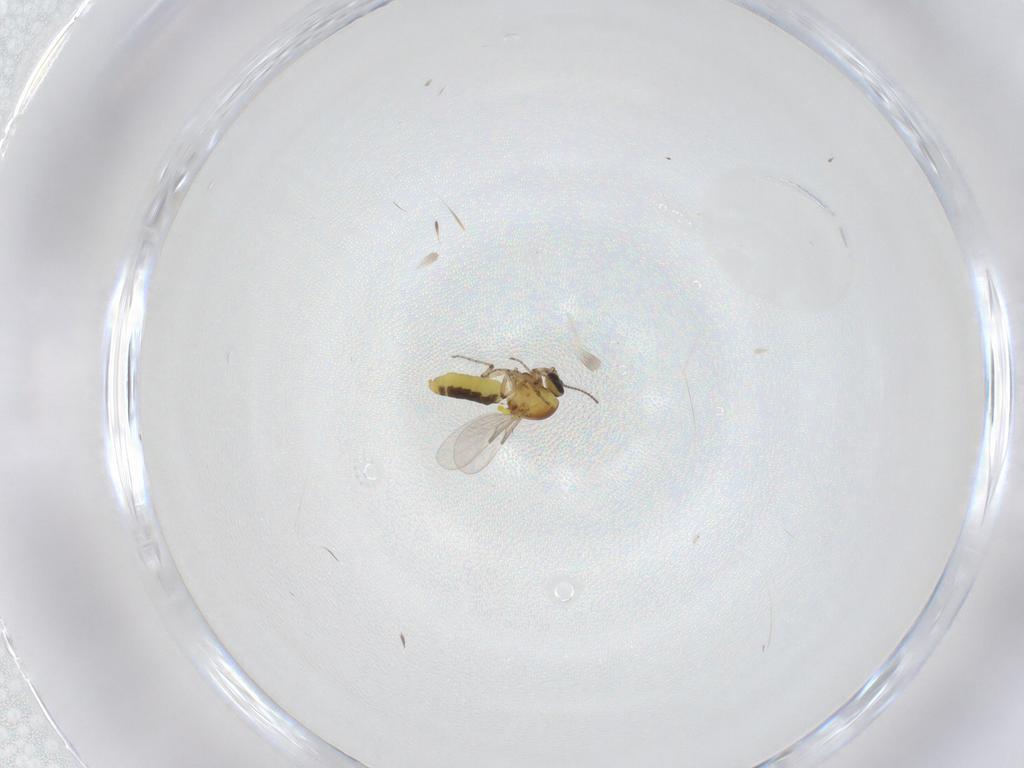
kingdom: Animalia
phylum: Arthropoda
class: Insecta
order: Diptera
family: Ceratopogonidae
